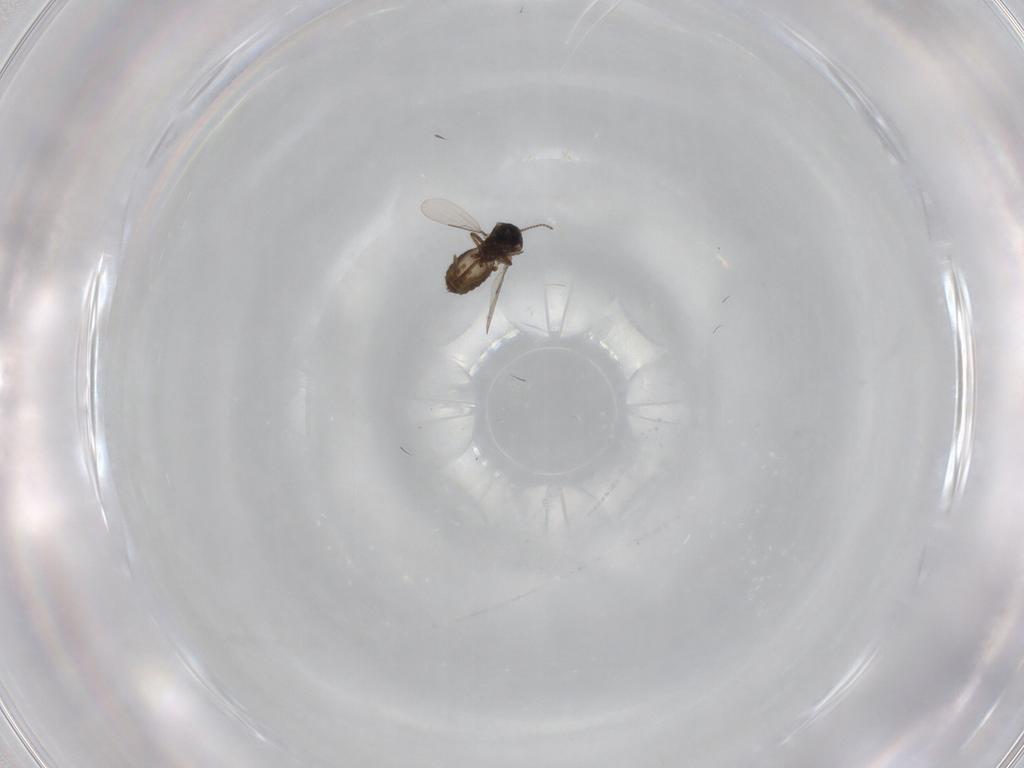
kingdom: Animalia
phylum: Arthropoda
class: Insecta
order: Diptera
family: Ceratopogonidae
